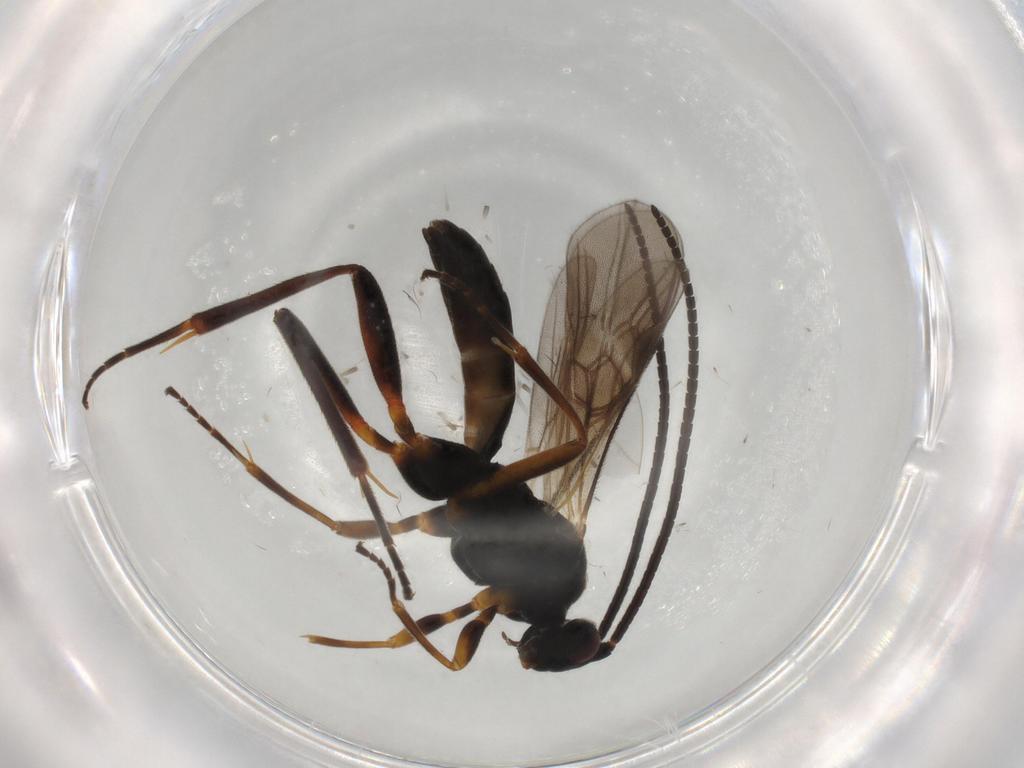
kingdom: Animalia
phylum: Arthropoda
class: Insecta
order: Hymenoptera
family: Braconidae
